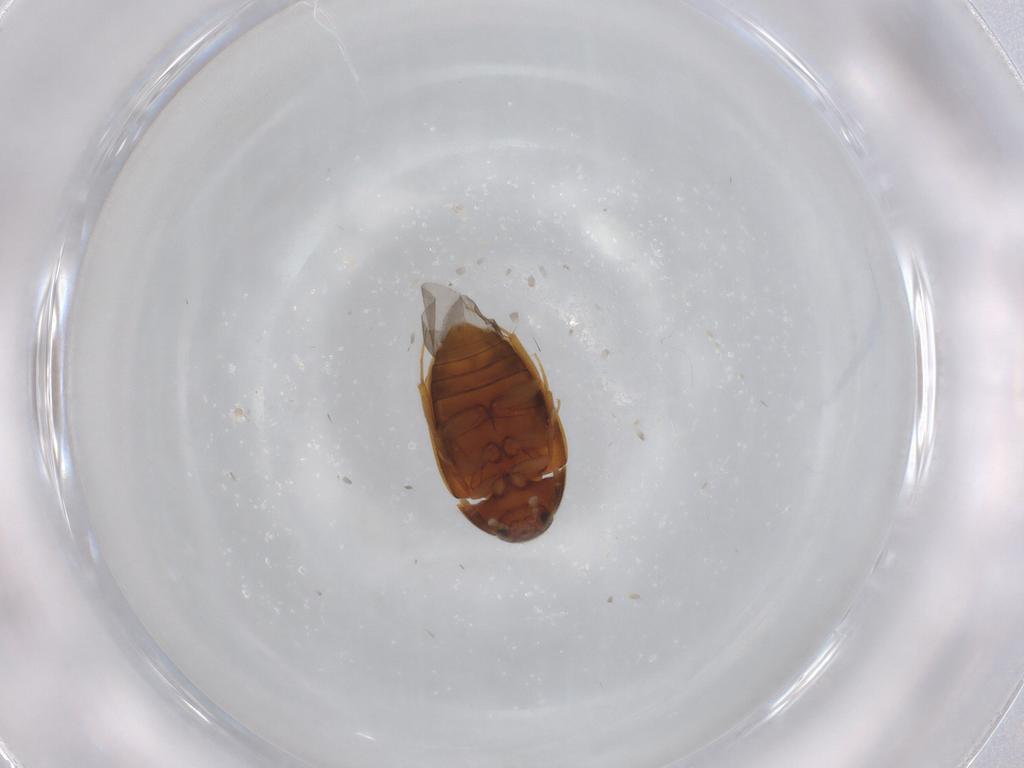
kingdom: Animalia
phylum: Arthropoda
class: Insecta
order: Coleoptera
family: Mycetophagidae
